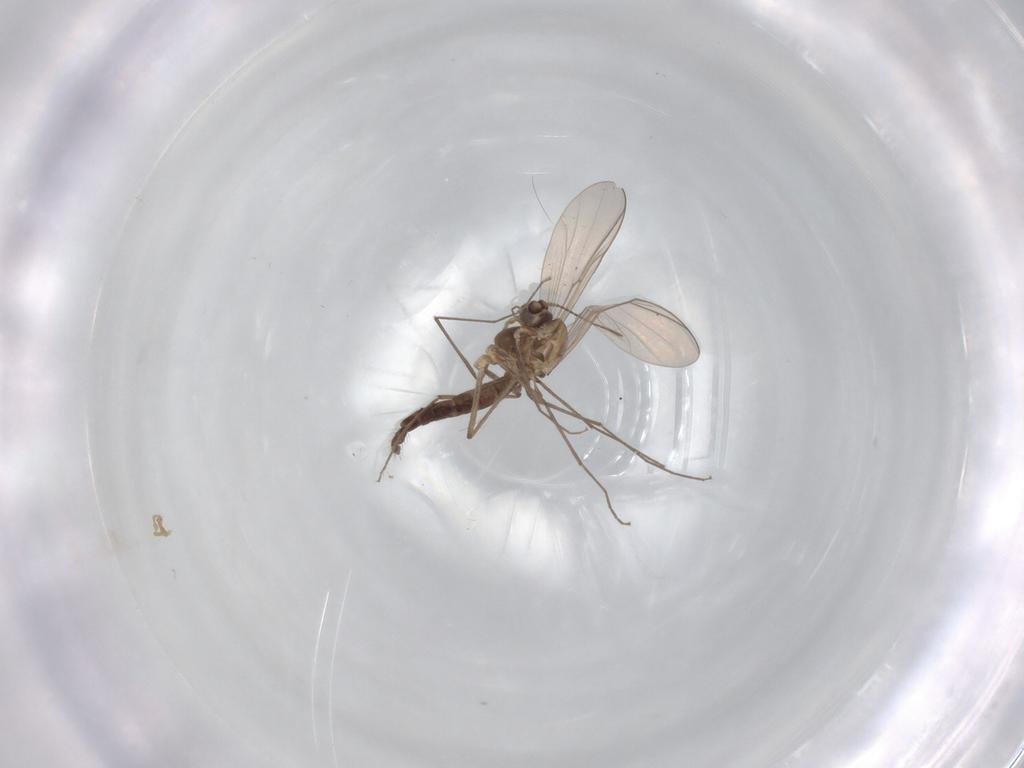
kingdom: Animalia
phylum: Arthropoda
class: Insecta
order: Diptera
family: Chironomidae
